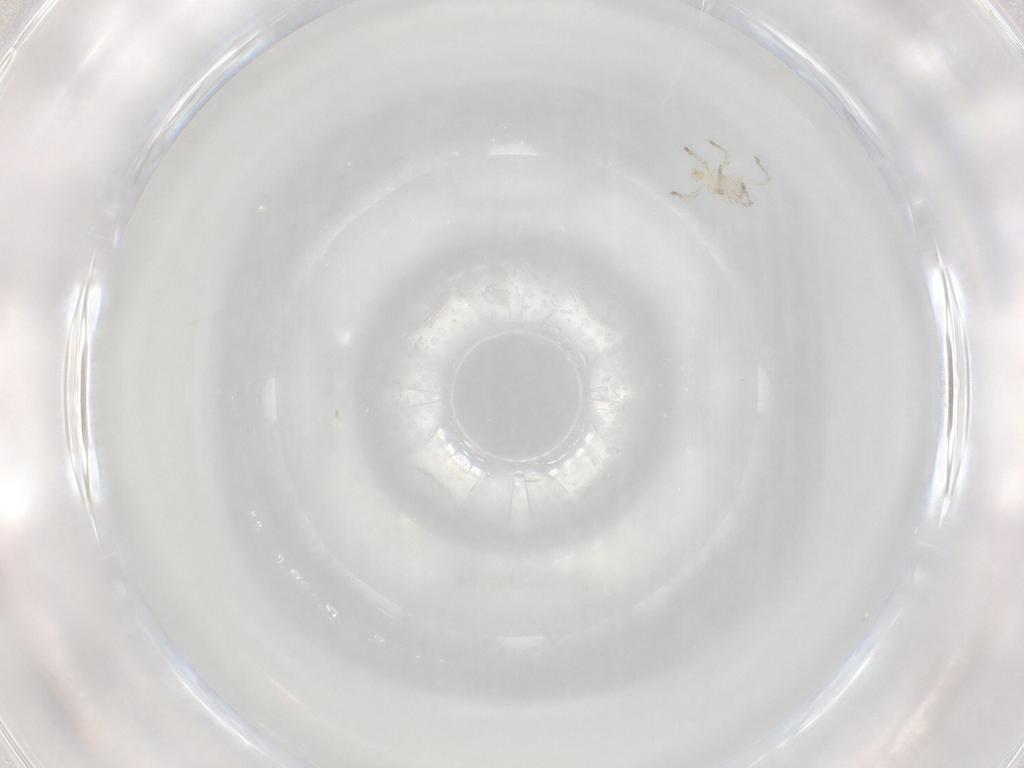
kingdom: Animalia
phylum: Arthropoda
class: Arachnida
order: Trombidiformes
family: Smarididae
